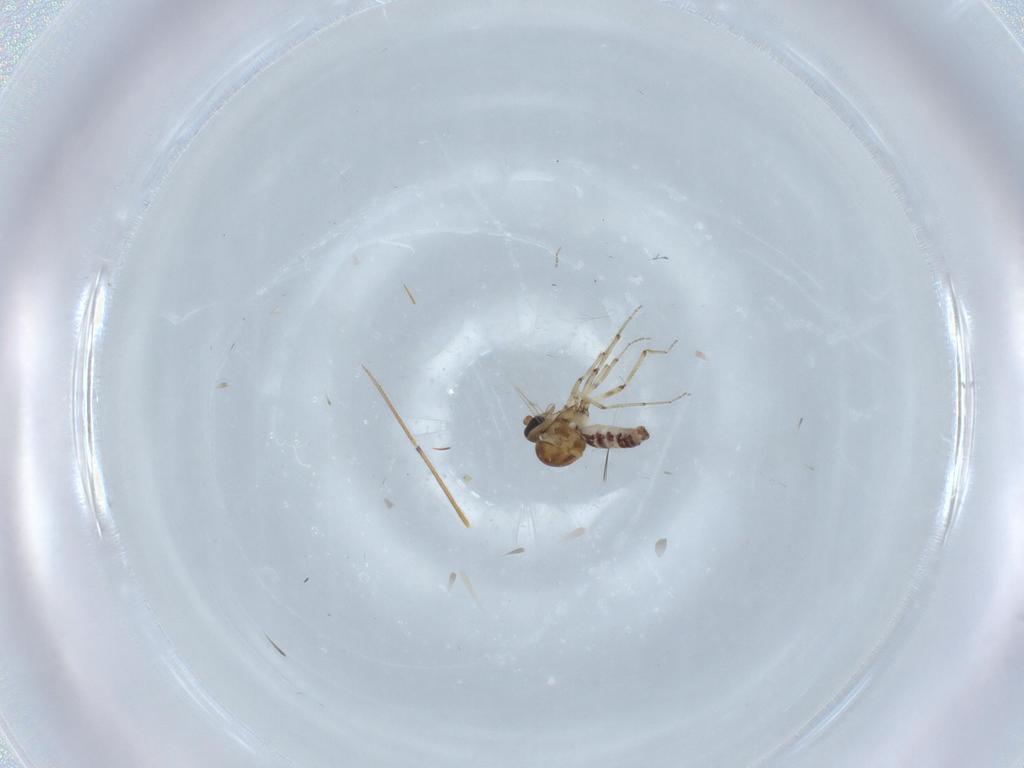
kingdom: Animalia
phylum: Arthropoda
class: Insecta
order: Diptera
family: Ceratopogonidae
